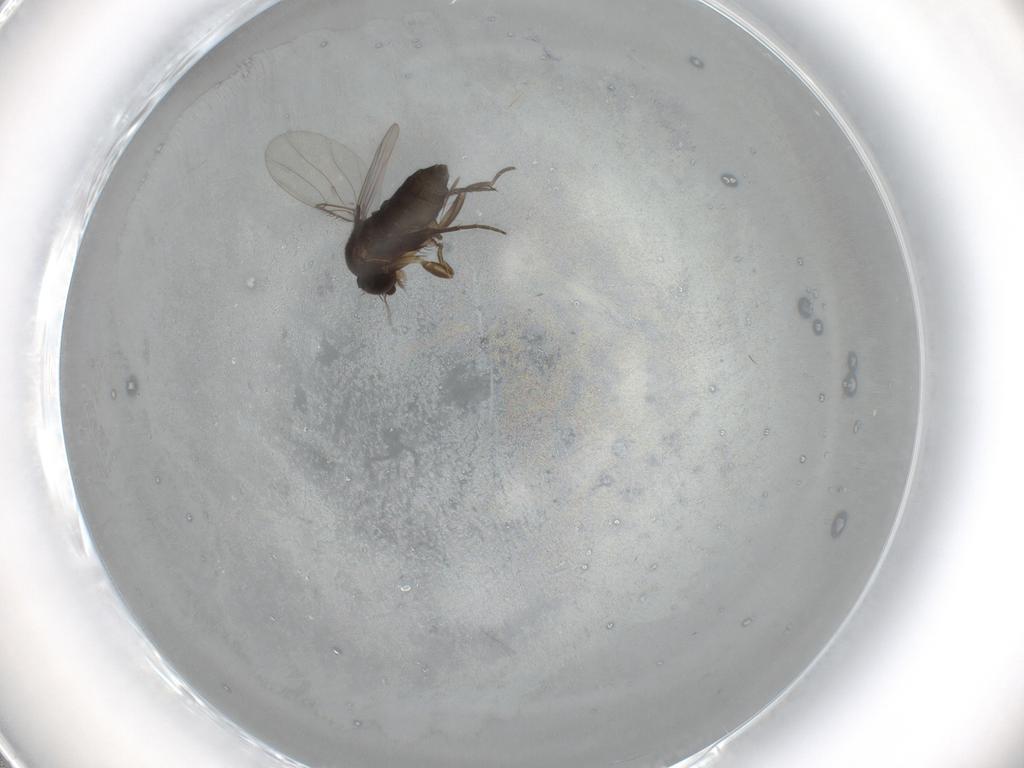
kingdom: Animalia
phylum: Arthropoda
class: Insecta
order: Diptera
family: Phoridae
